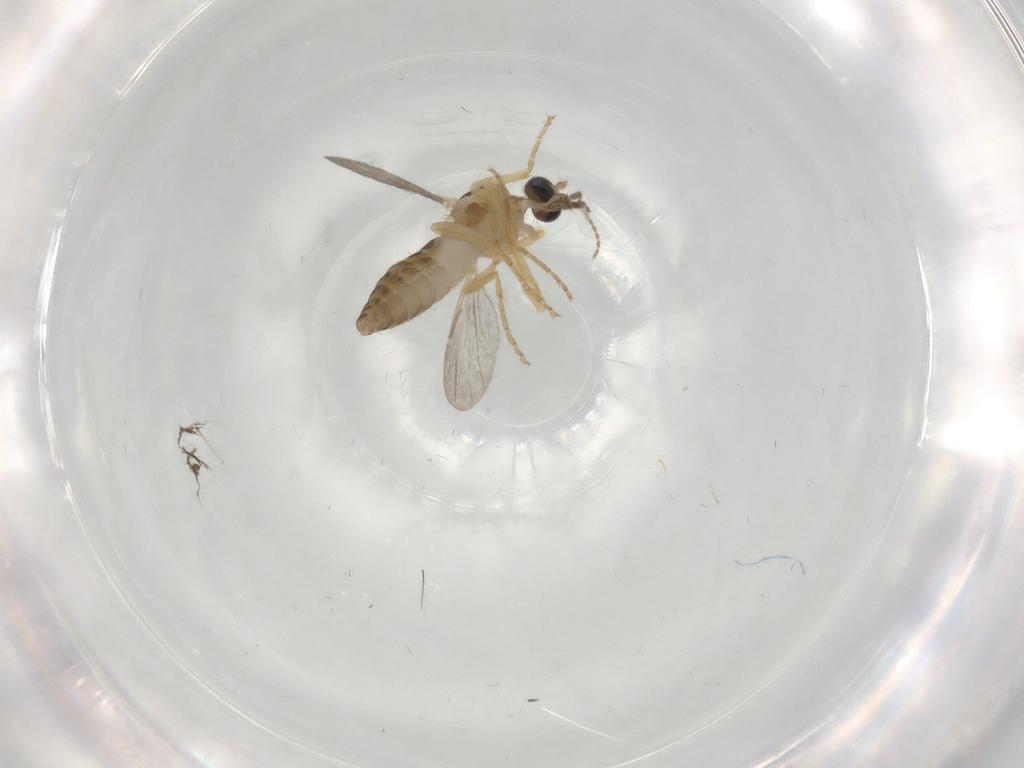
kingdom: Animalia
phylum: Arthropoda
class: Insecta
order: Diptera
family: Ceratopogonidae
